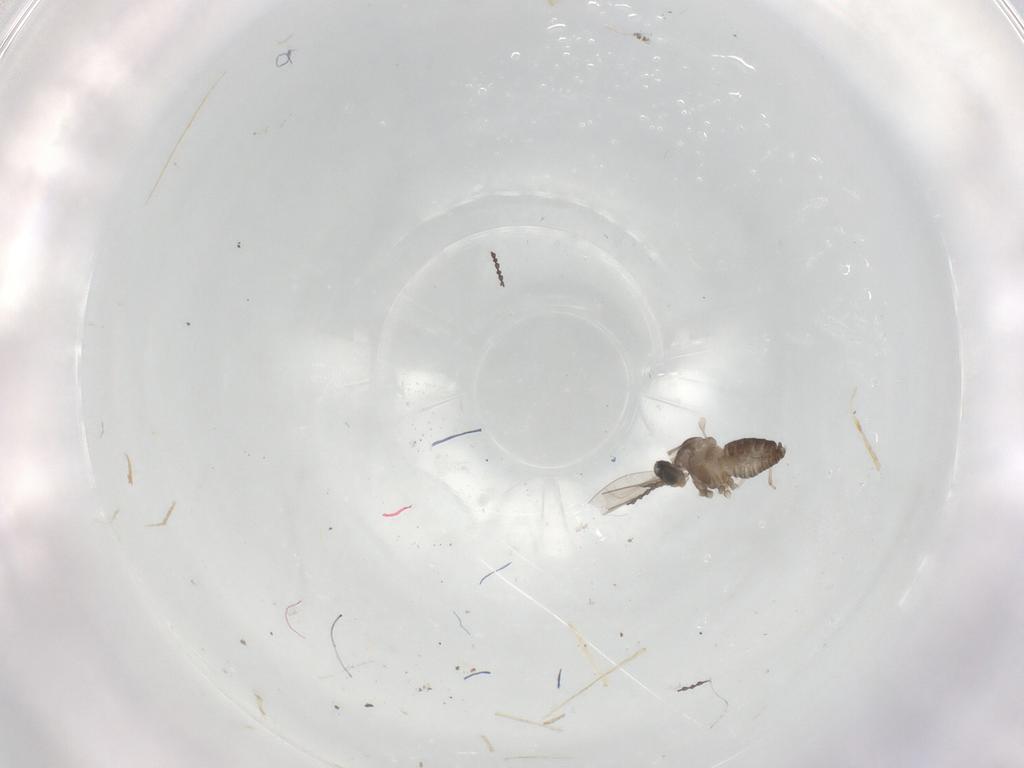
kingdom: Animalia
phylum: Arthropoda
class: Insecta
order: Diptera
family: Cecidomyiidae
